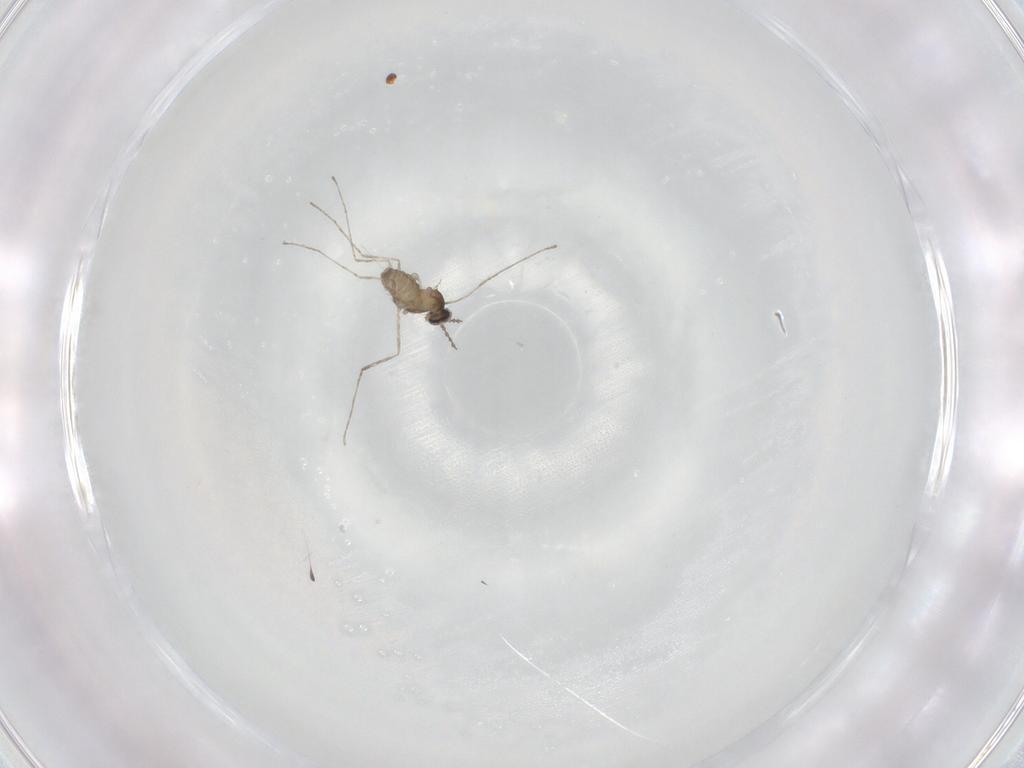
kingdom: Animalia
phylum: Arthropoda
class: Insecta
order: Diptera
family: Cecidomyiidae
